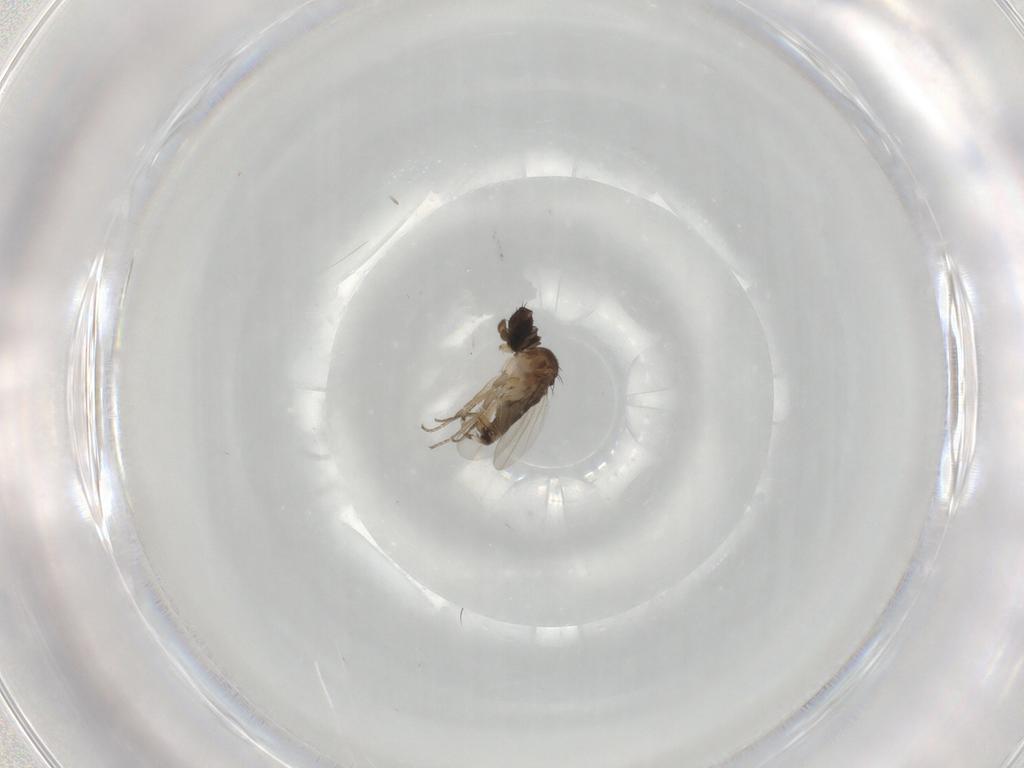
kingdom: Animalia
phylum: Arthropoda
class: Insecta
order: Diptera
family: Phoridae
